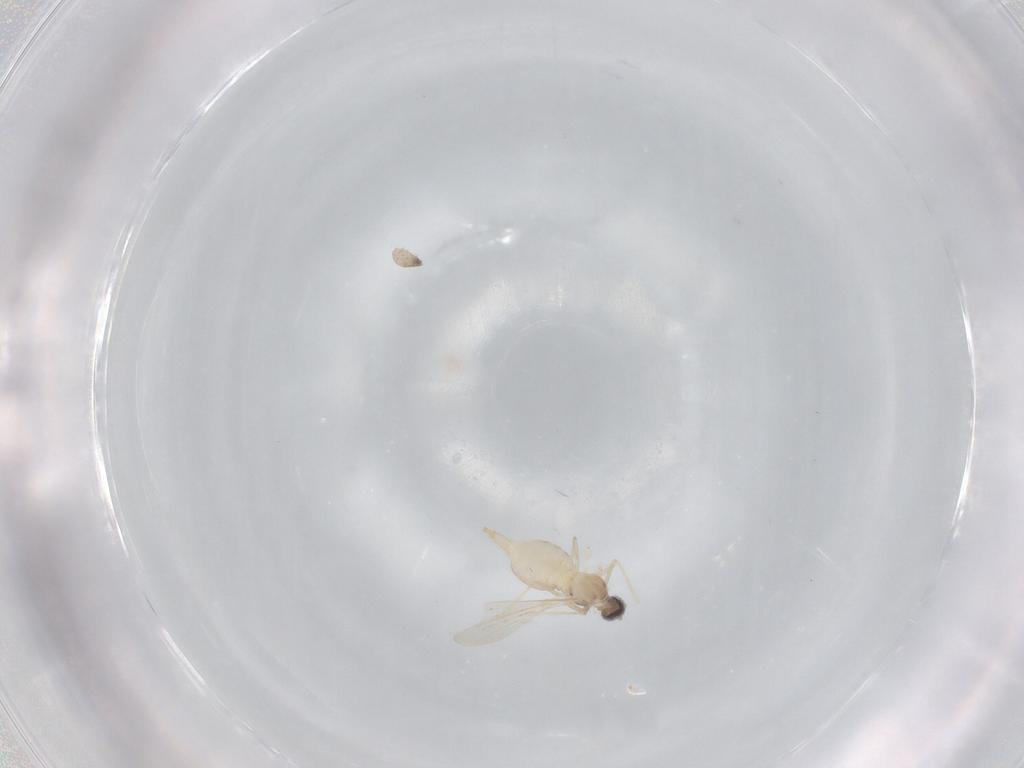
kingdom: Animalia
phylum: Arthropoda
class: Insecta
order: Diptera
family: Cecidomyiidae
